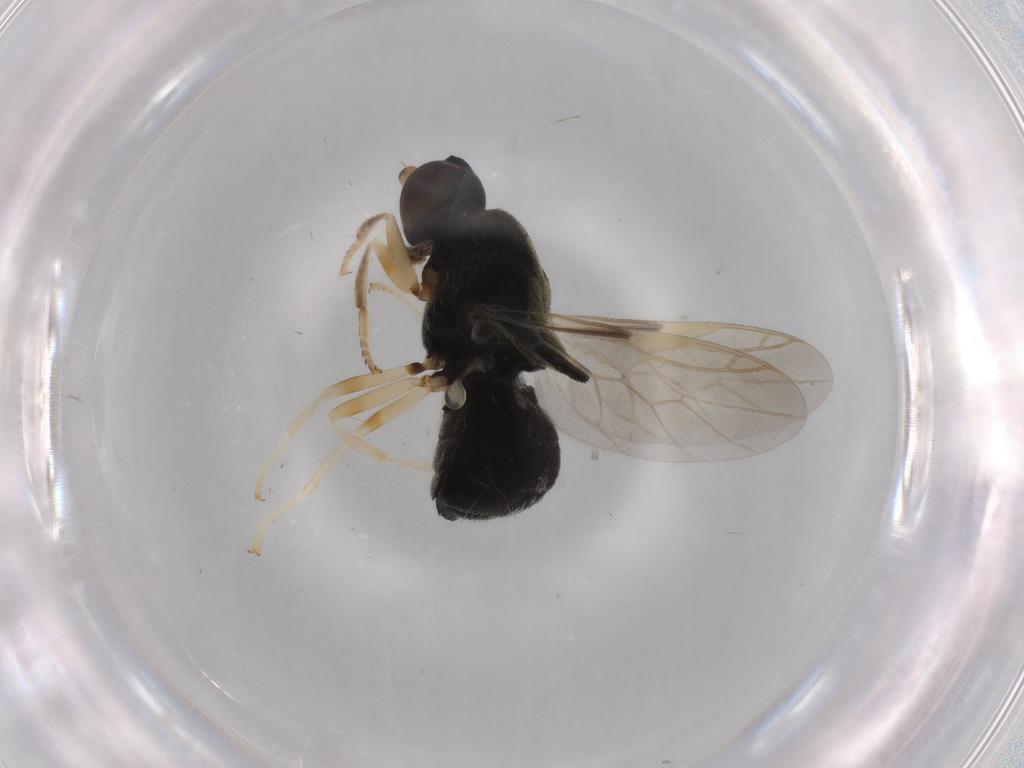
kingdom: Animalia
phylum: Arthropoda
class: Insecta
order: Diptera
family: Stratiomyidae
